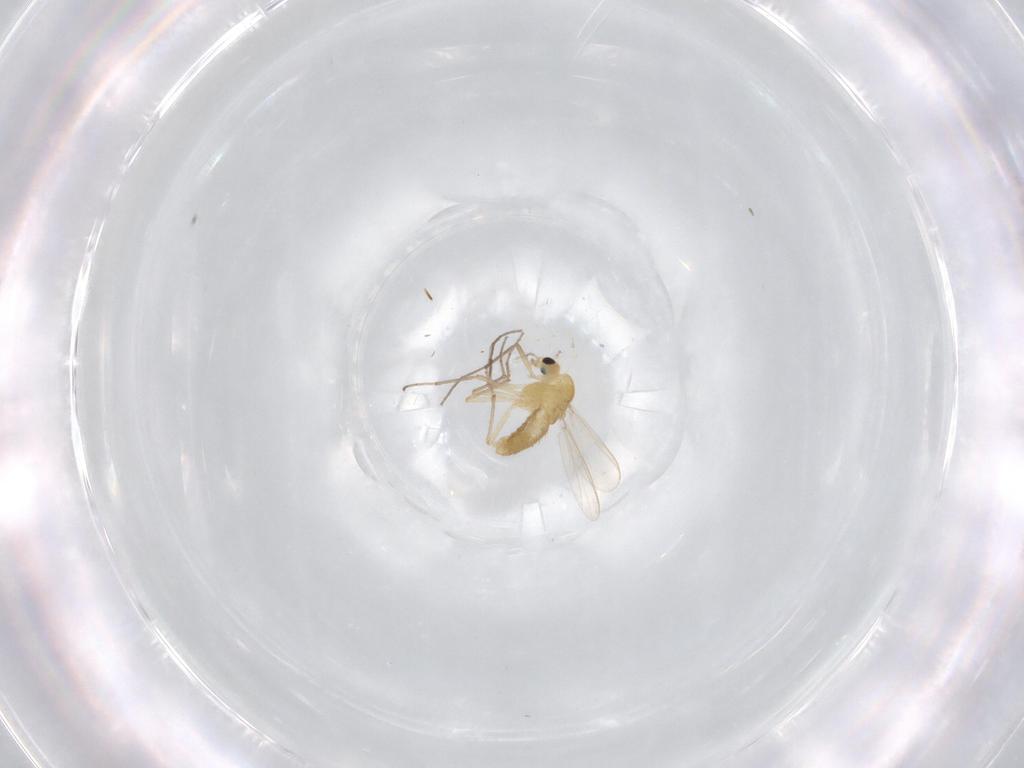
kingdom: Animalia
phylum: Arthropoda
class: Insecta
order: Diptera
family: Chironomidae
